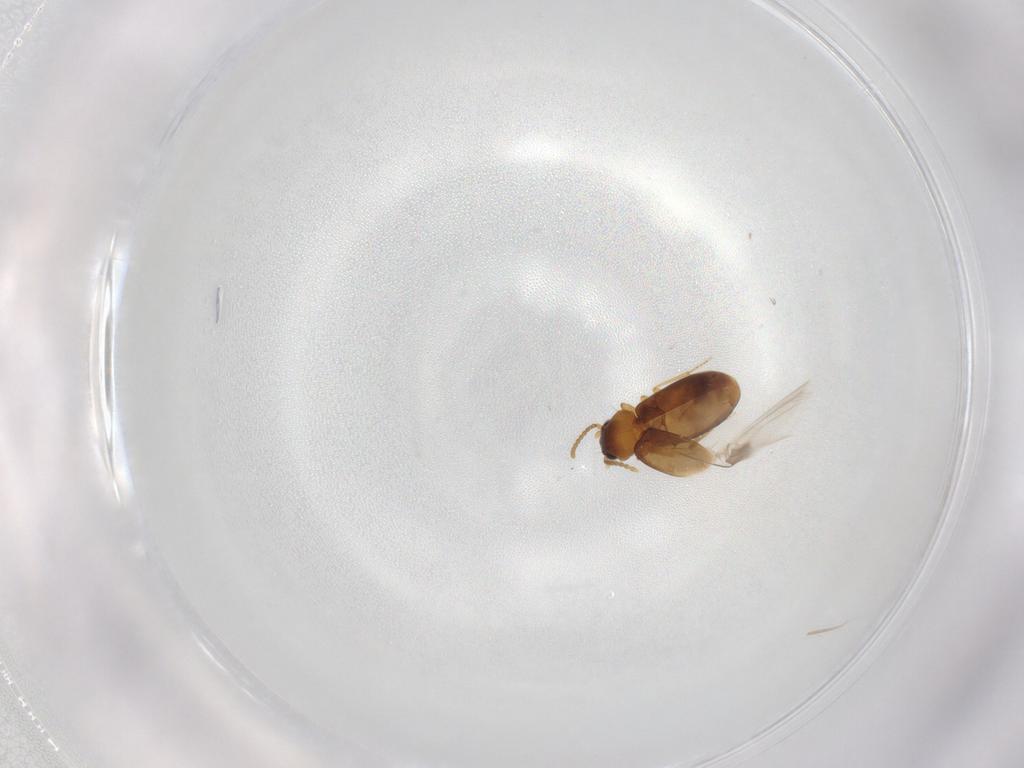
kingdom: Animalia
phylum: Arthropoda
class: Insecta
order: Coleoptera
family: Carabidae
